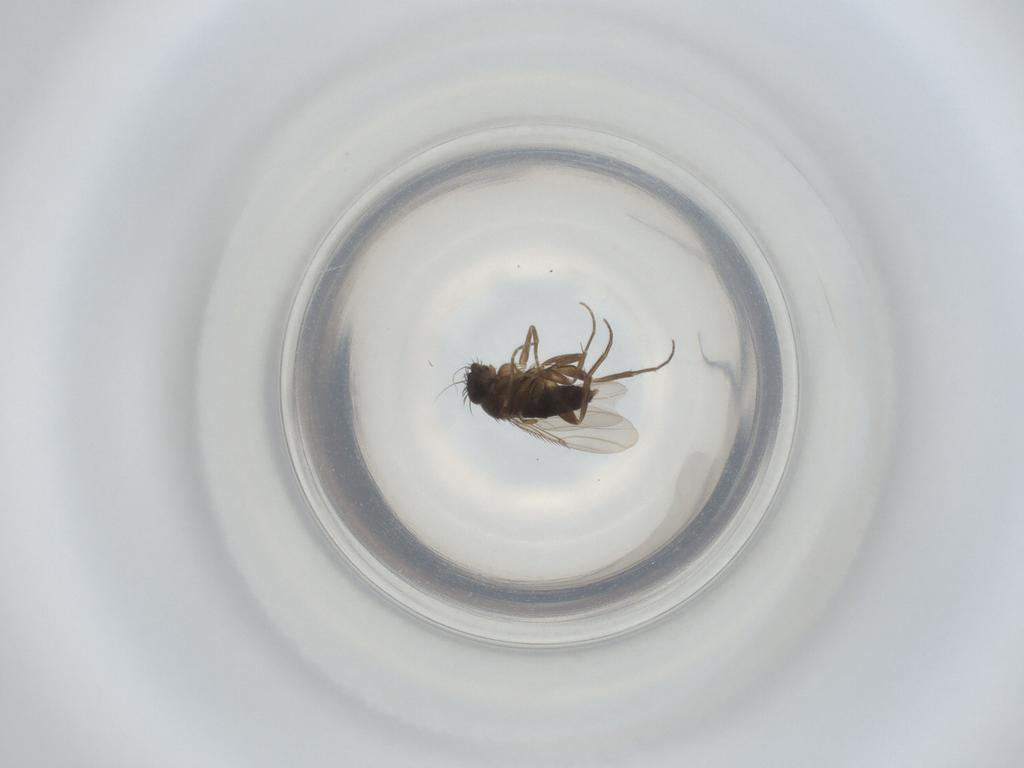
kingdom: Animalia
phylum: Arthropoda
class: Insecta
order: Diptera
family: Phoridae
